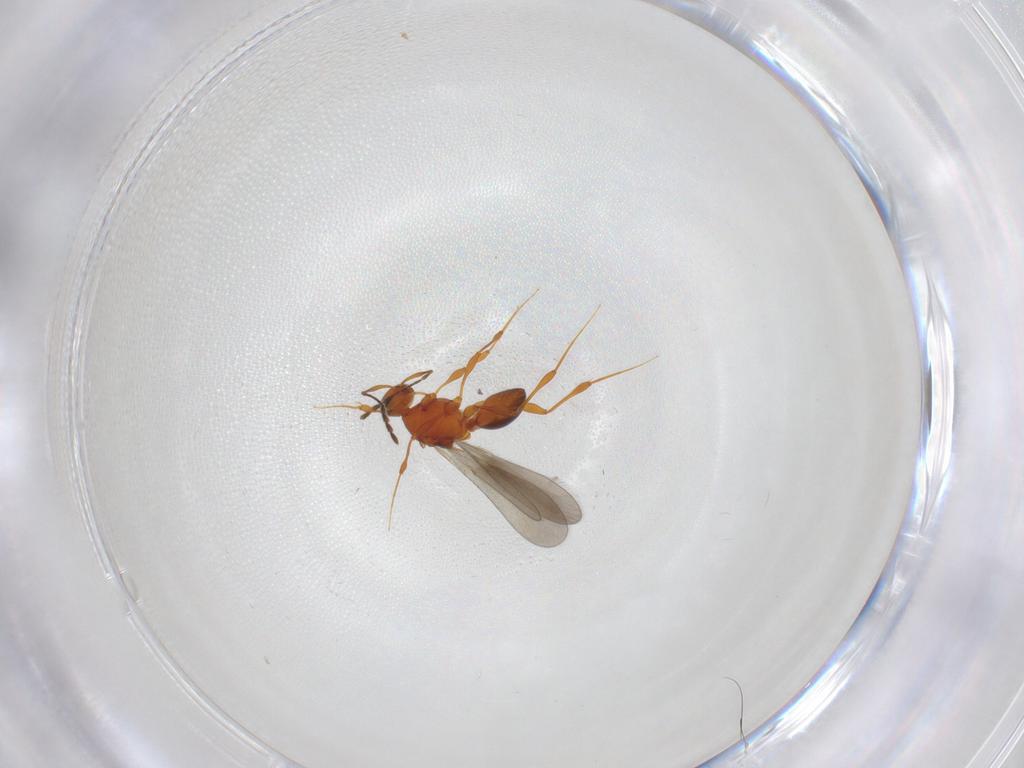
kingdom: Animalia
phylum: Arthropoda
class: Insecta
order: Hymenoptera
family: Platygastridae
